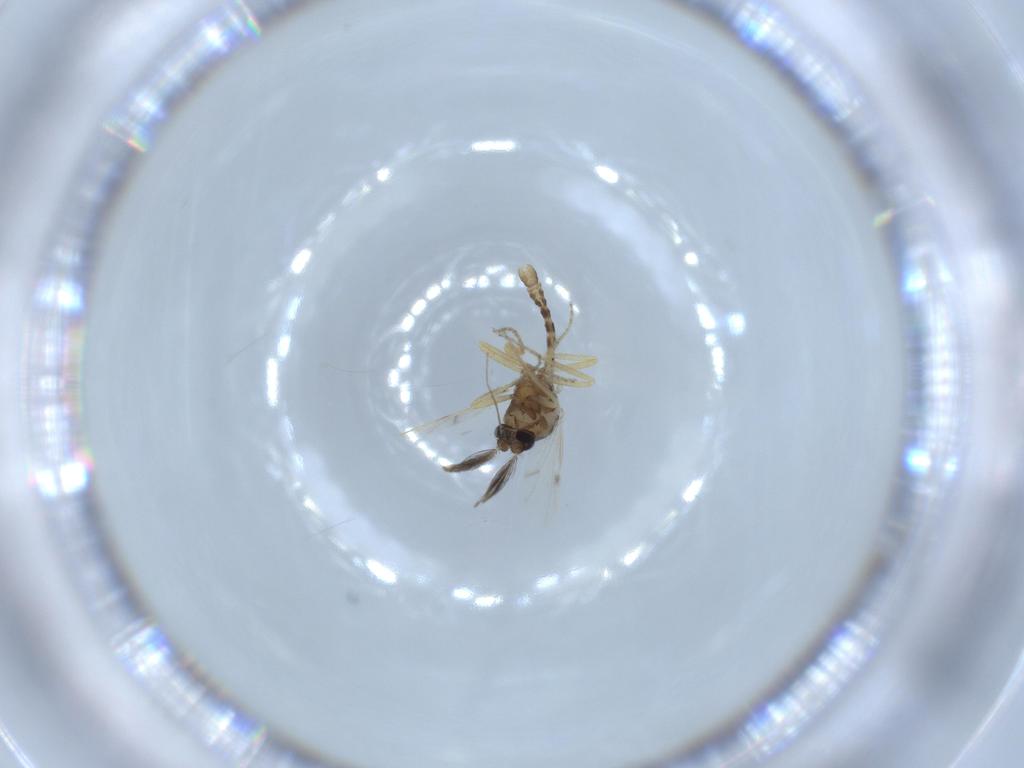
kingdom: Animalia
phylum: Arthropoda
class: Insecta
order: Diptera
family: Ceratopogonidae
